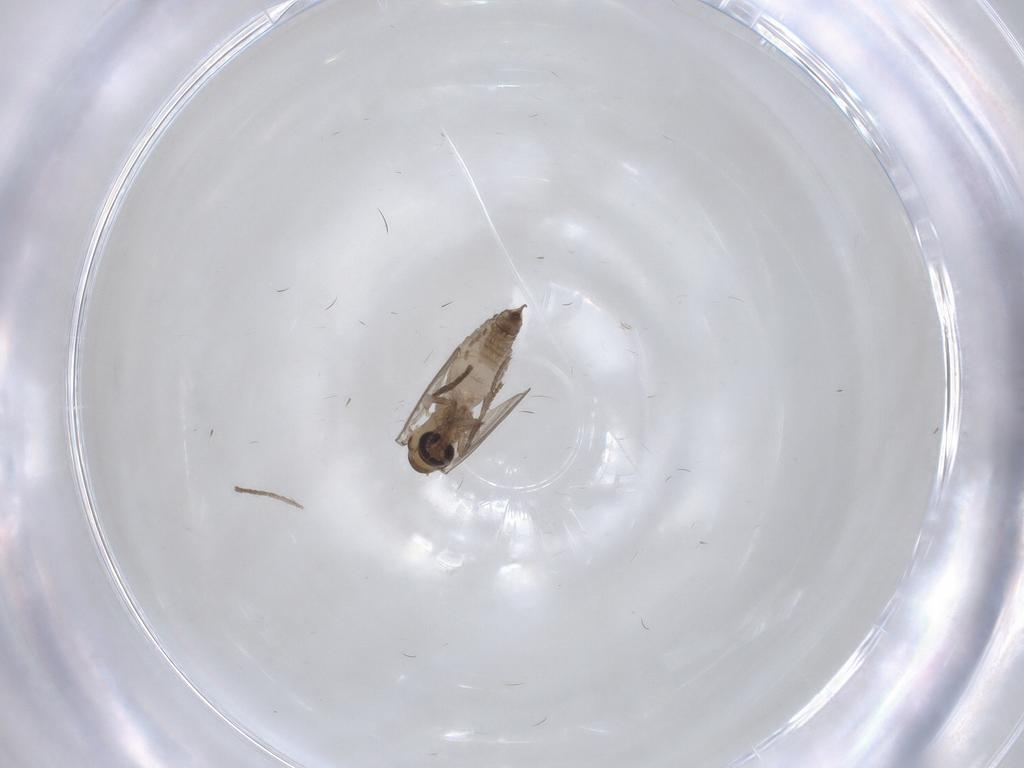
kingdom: Animalia
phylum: Arthropoda
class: Insecta
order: Diptera
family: Psychodidae
